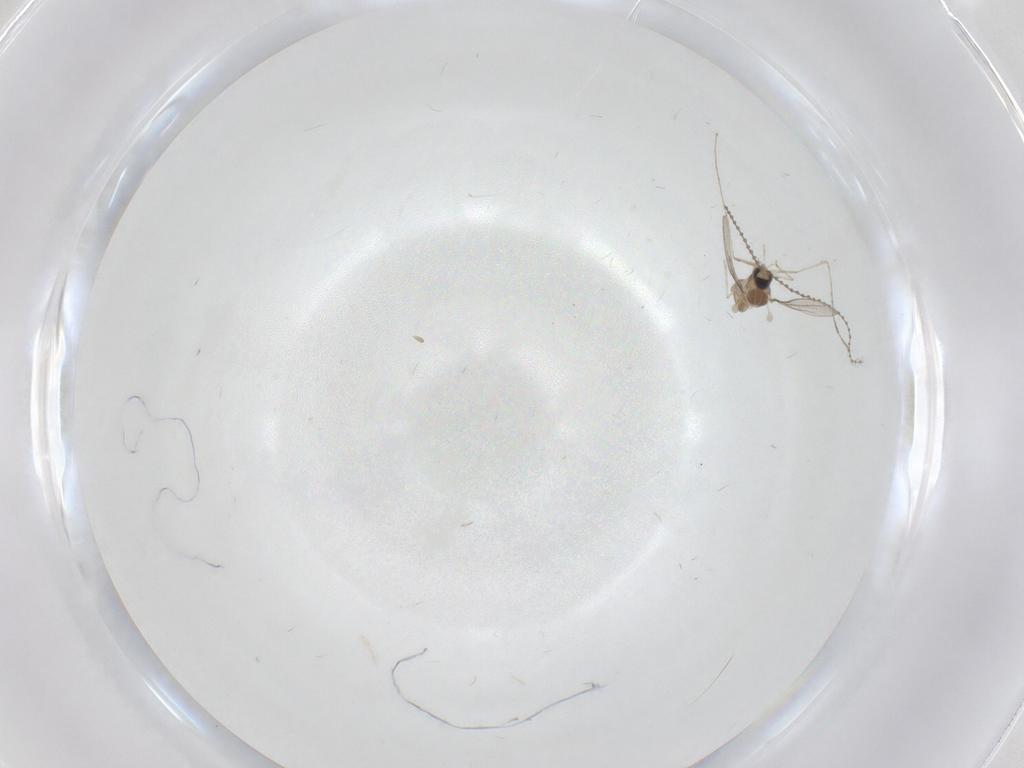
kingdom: Animalia
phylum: Arthropoda
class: Insecta
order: Diptera
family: Cecidomyiidae
